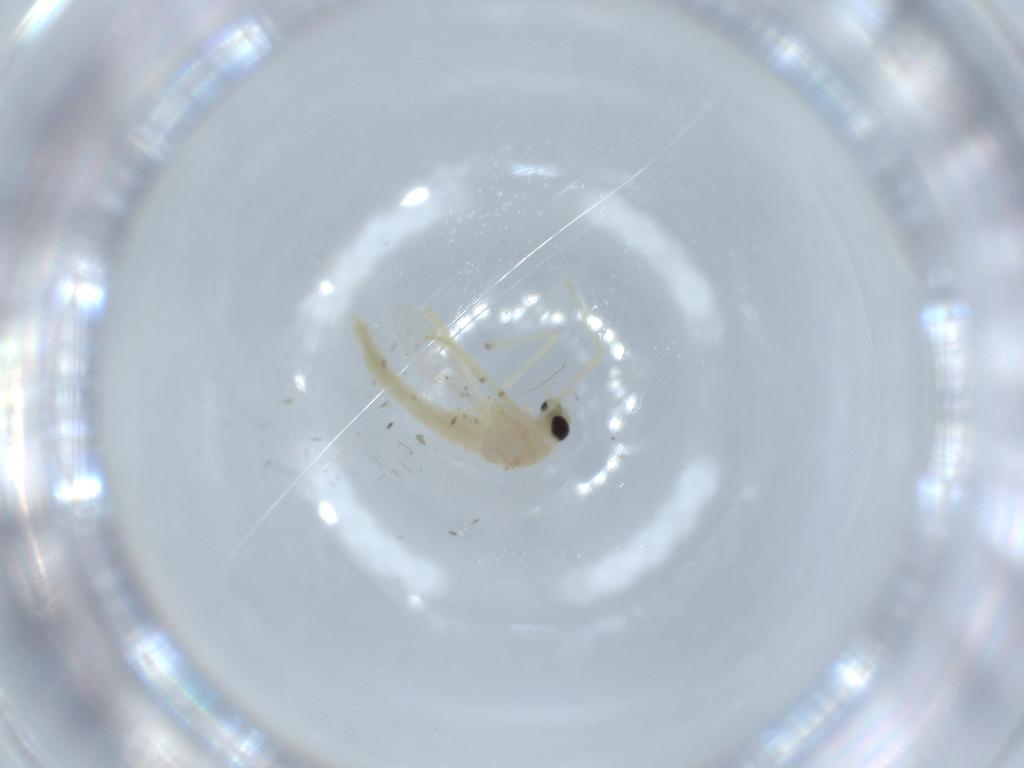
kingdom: Animalia
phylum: Arthropoda
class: Insecta
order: Diptera
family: Chironomidae
